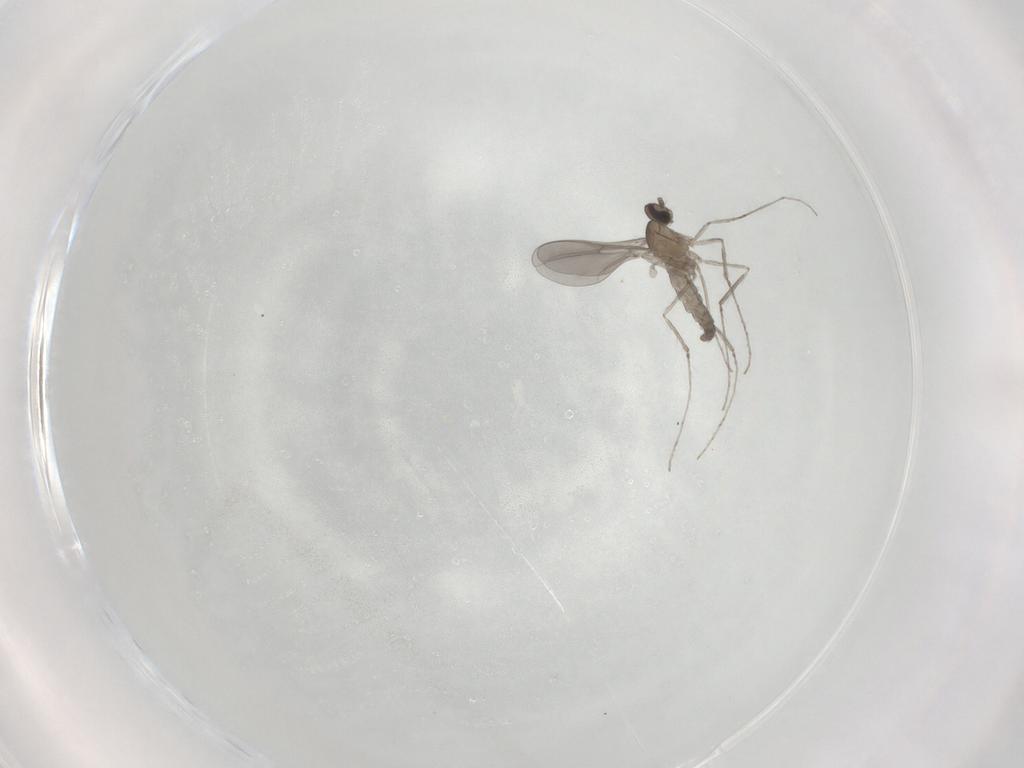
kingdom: Animalia
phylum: Arthropoda
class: Insecta
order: Diptera
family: Cecidomyiidae
